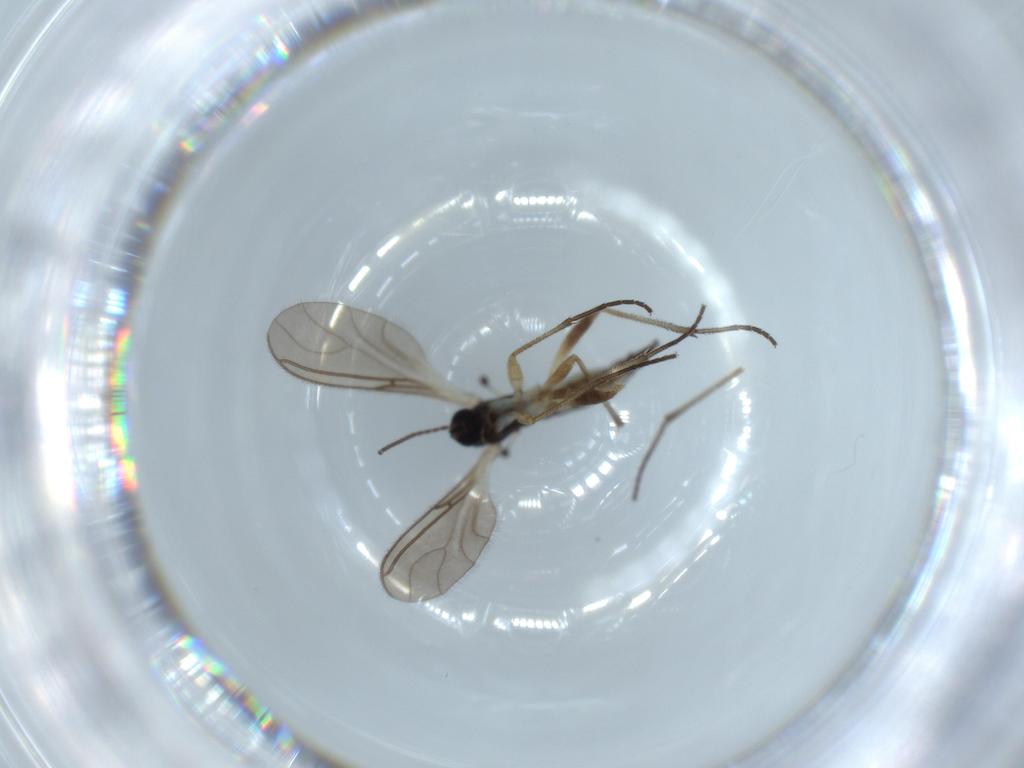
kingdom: Animalia
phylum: Arthropoda
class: Insecta
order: Diptera
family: Sciaridae
